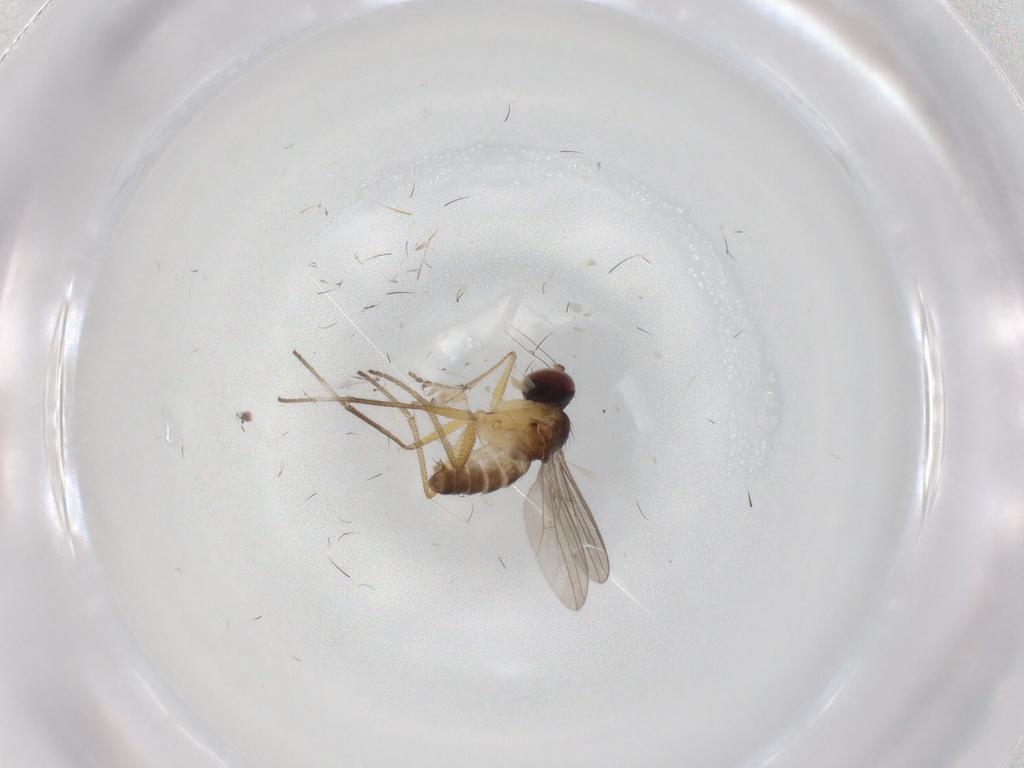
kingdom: Animalia
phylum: Arthropoda
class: Insecta
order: Diptera
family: Dolichopodidae
